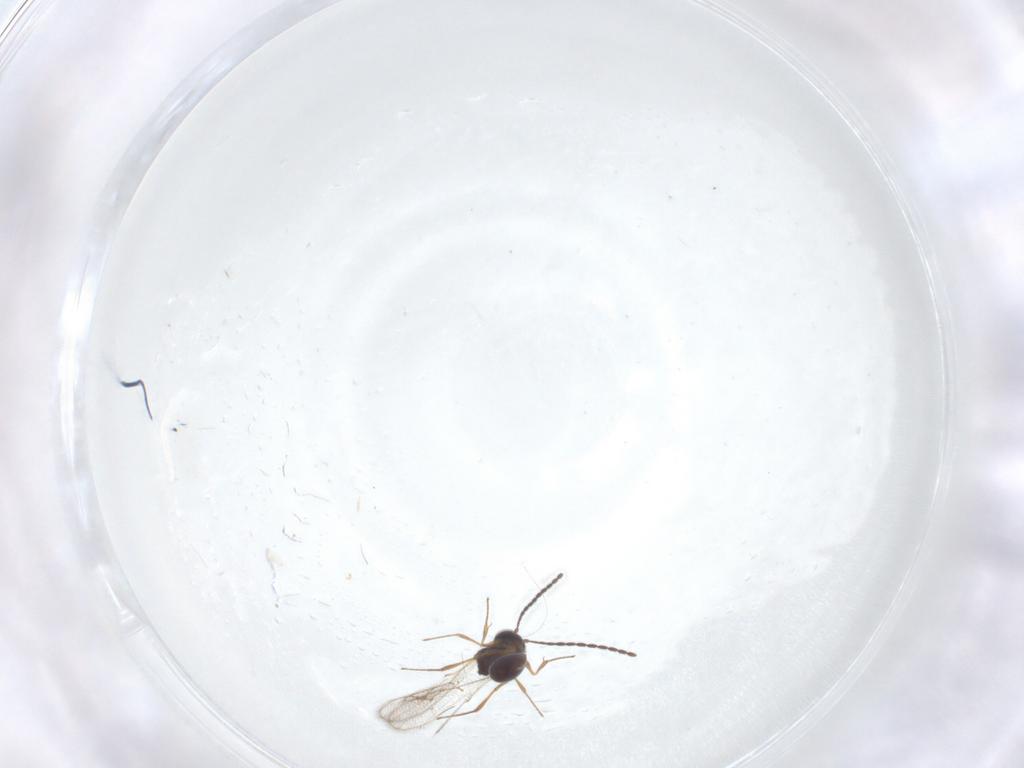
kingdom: Animalia
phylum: Arthropoda
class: Insecta
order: Hymenoptera
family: Figitidae
